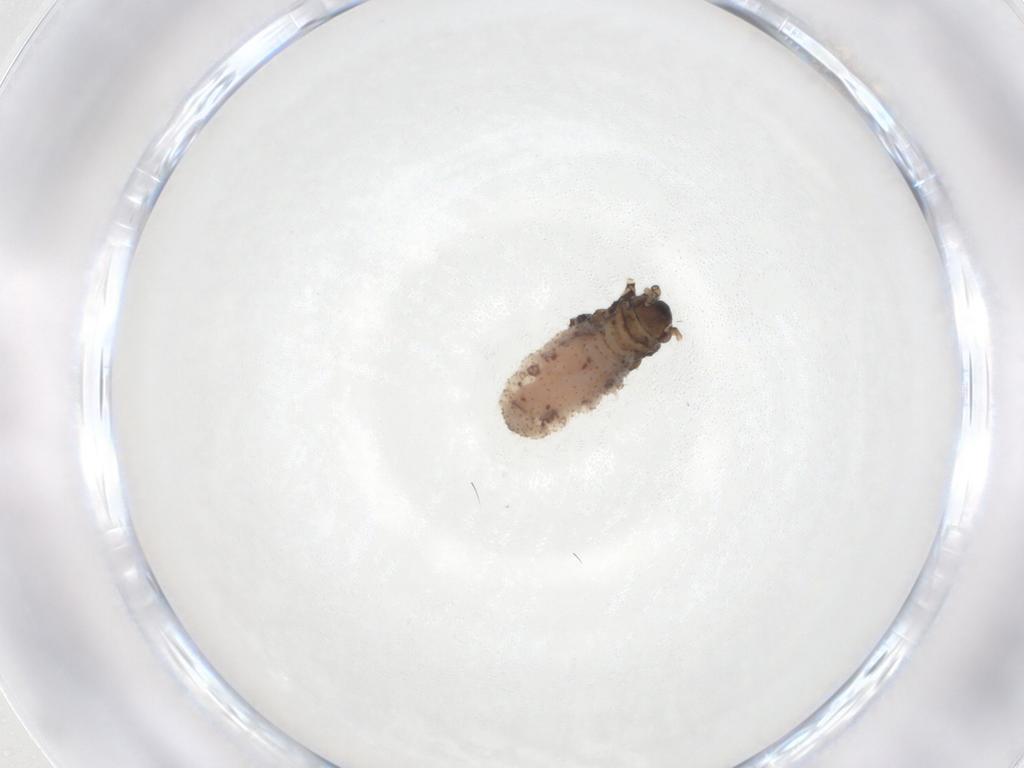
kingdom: Animalia
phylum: Arthropoda
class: Insecta
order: Hemiptera
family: Lachnidae
